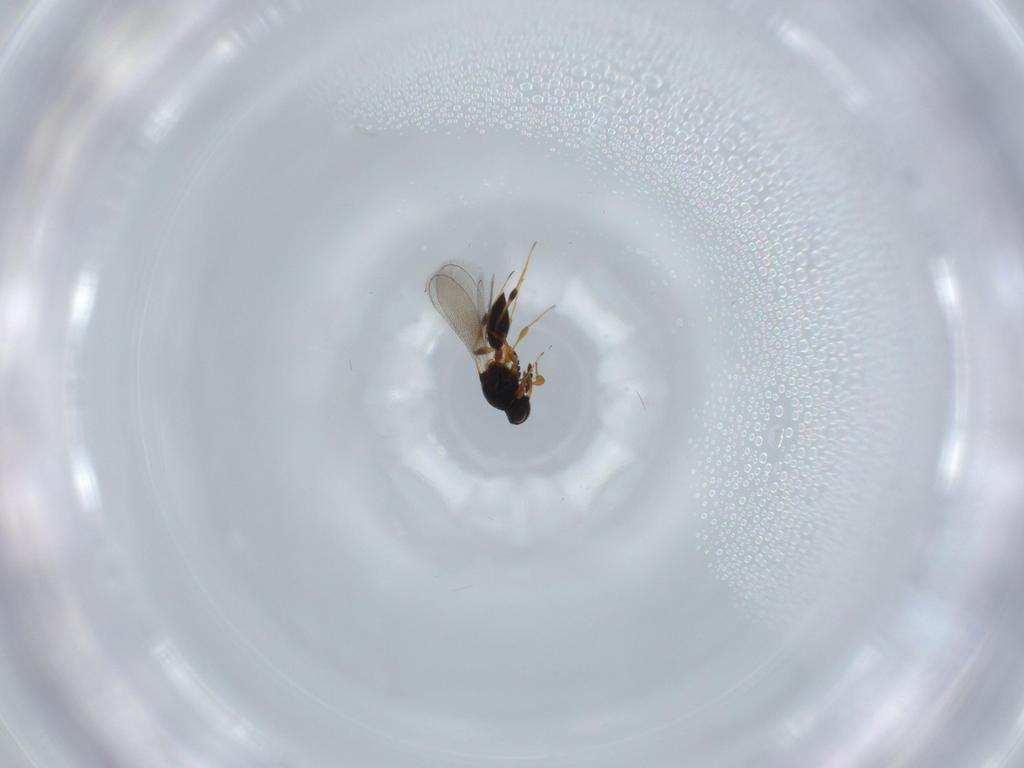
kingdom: Animalia
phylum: Arthropoda
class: Insecta
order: Hymenoptera
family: Platygastridae
